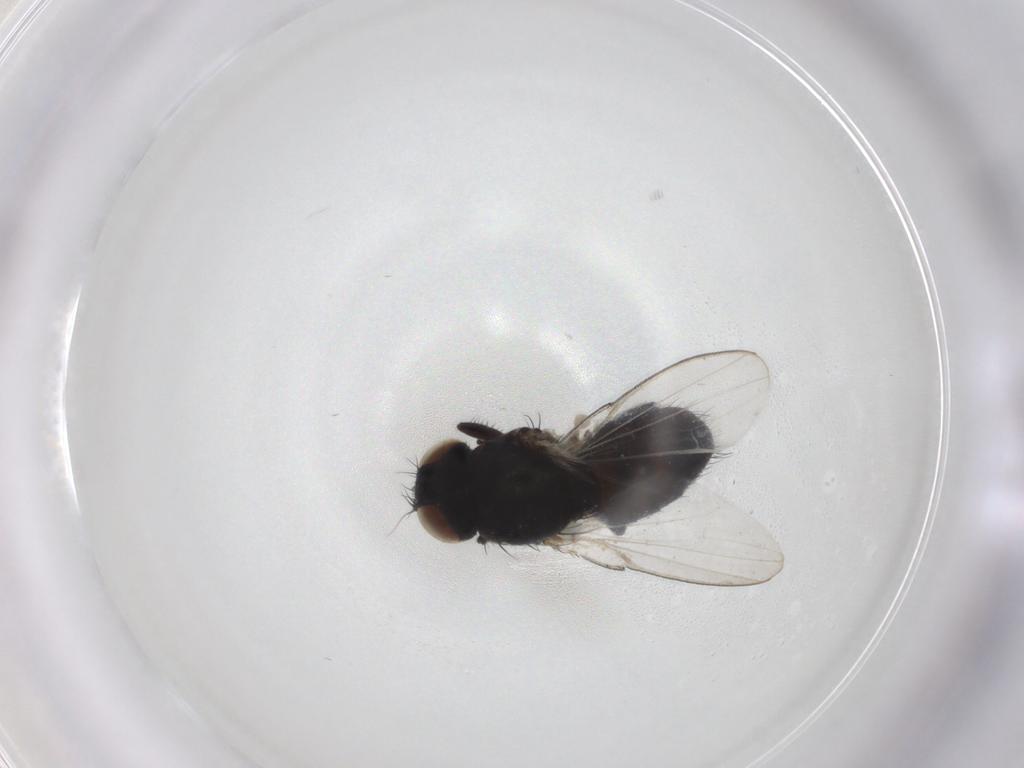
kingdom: Animalia
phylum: Arthropoda
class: Insecta
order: Diptera
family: Milichiidae
